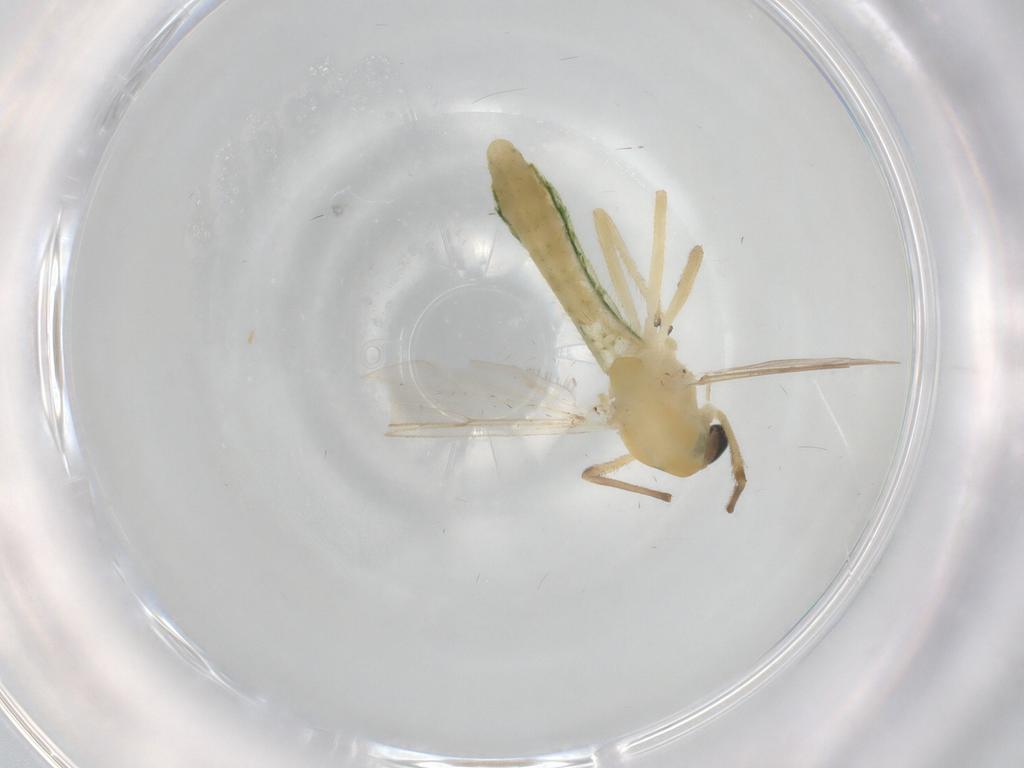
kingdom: Animalia
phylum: Arthropoda
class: Insecta
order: Diptera
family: Chironomidae
